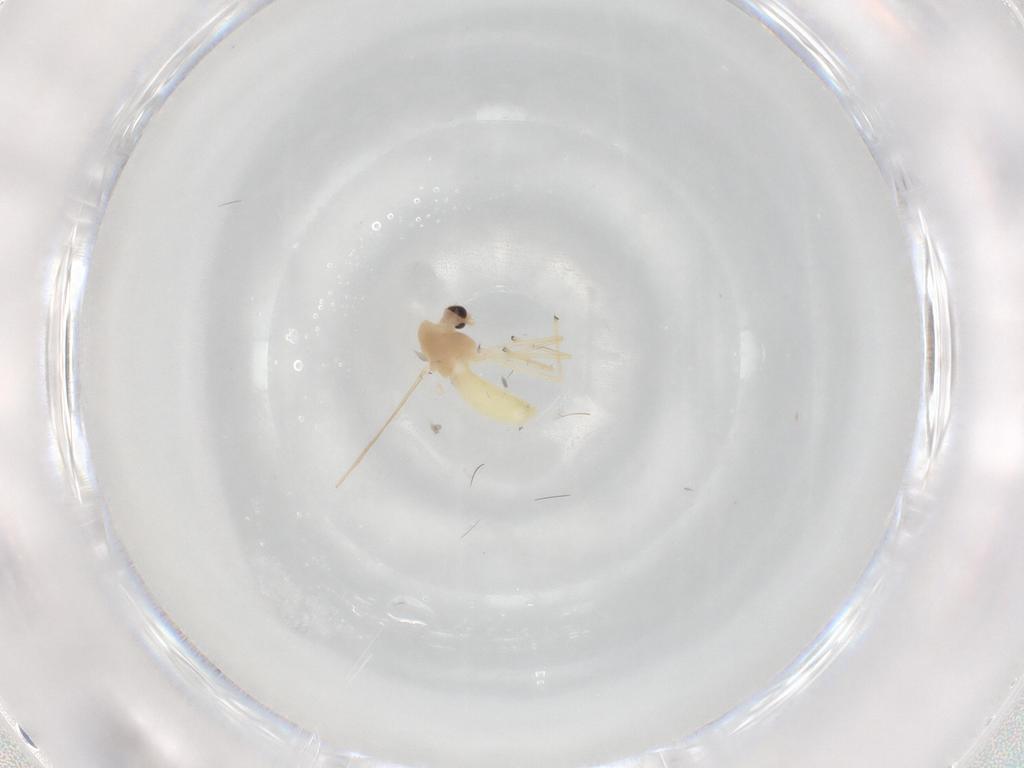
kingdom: Animalia
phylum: Arthropoda
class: Insecta
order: Diptera
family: Chironomidae
